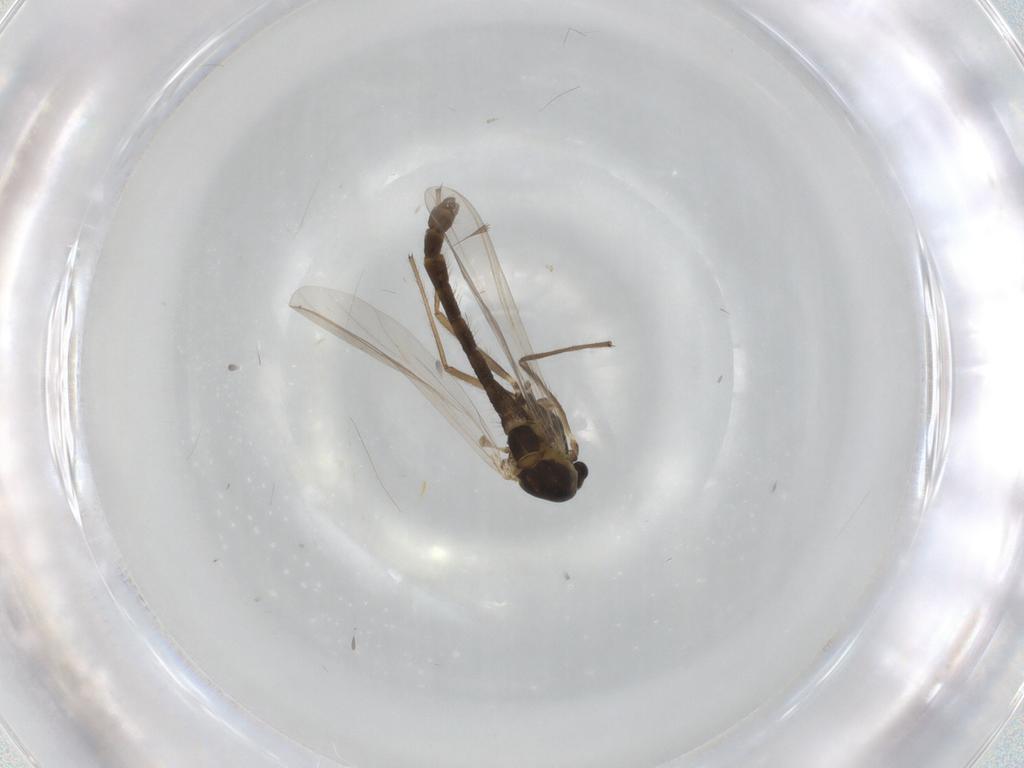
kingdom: Animalia
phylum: Arthropoda
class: Insecta
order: Diptera
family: Chironomidae
